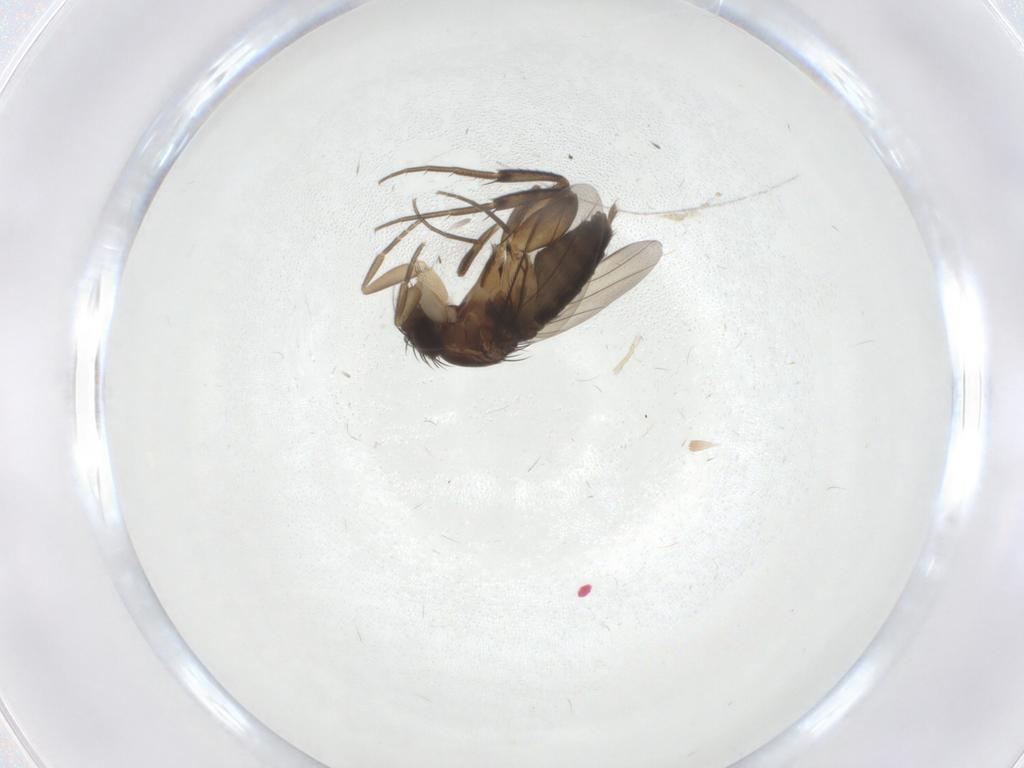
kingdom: Animalia
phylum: Arthropoda
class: Insecta
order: Diptera
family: Phoridae
